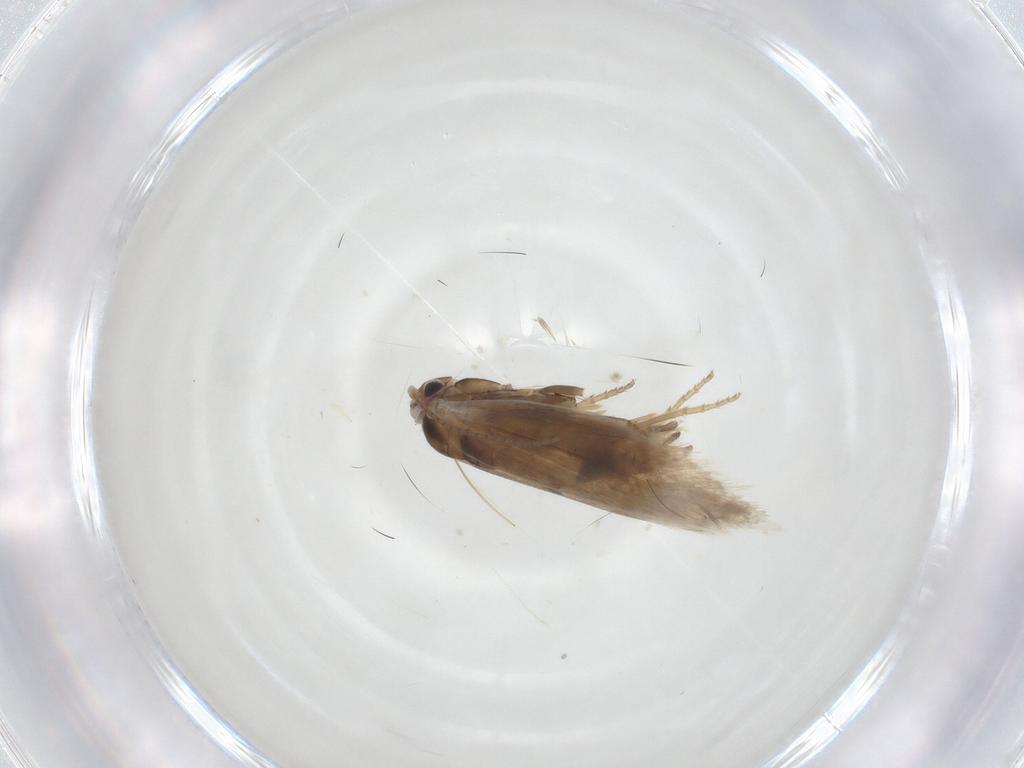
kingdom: Animalia
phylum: Arthropoda
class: Insecta
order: Lepidoptera
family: Bucculatricidae
